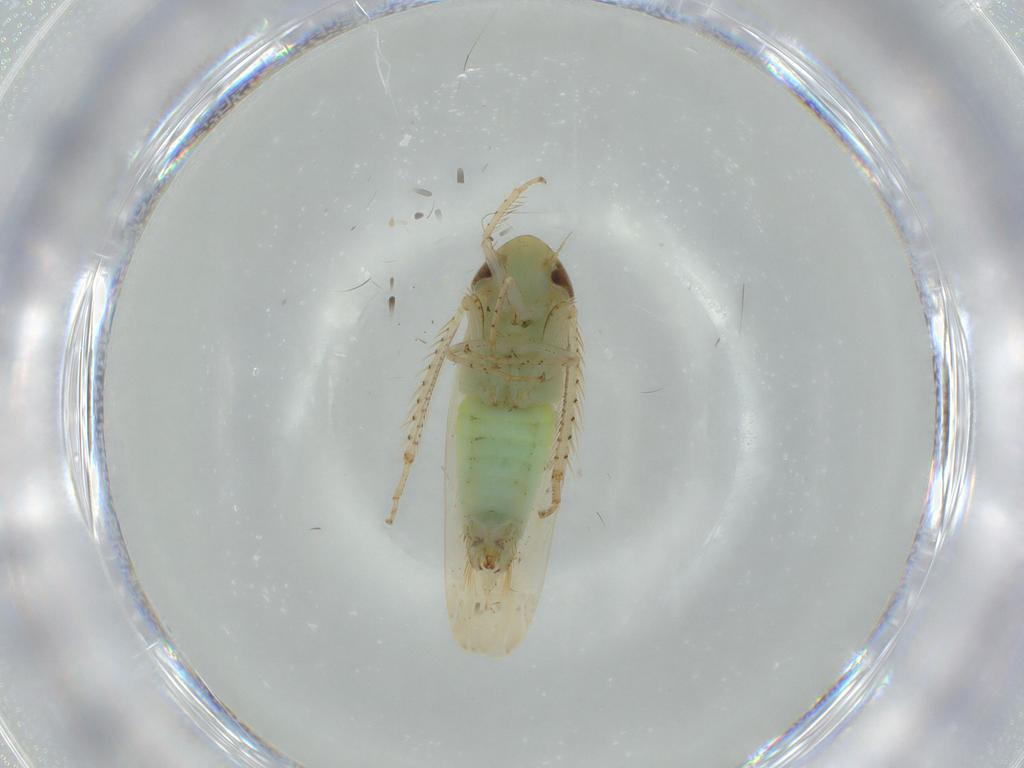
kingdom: Animalia
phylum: Arthropoda
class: Insecta
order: Hemiptera
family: Cicadellidae
